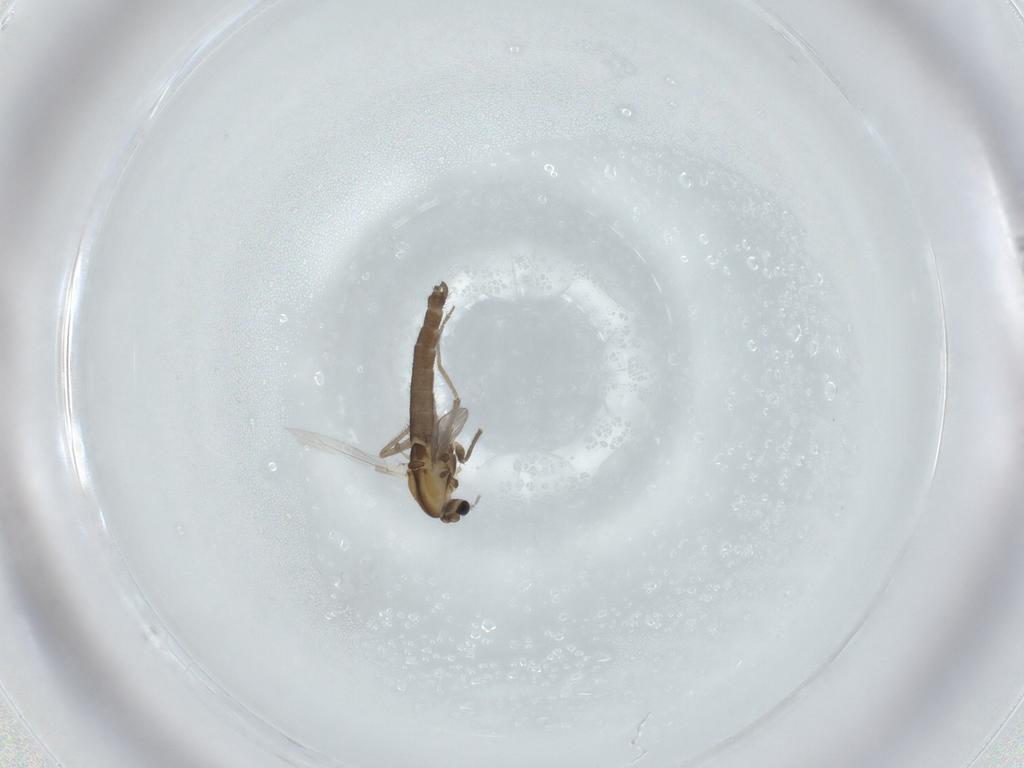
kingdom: Animalia
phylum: Arthropoda
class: Insecta
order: Diptera
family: Chironomidae
